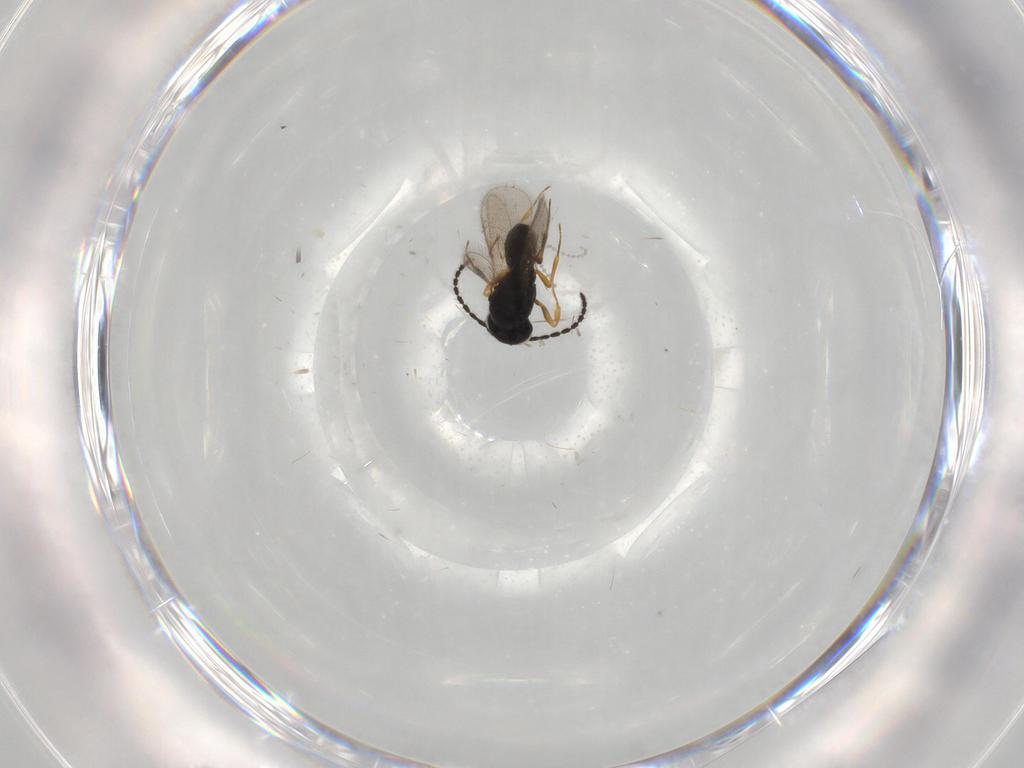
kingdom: Animalia
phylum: Arthropoda
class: Insecta
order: Hymenoptera
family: Scelionidae
